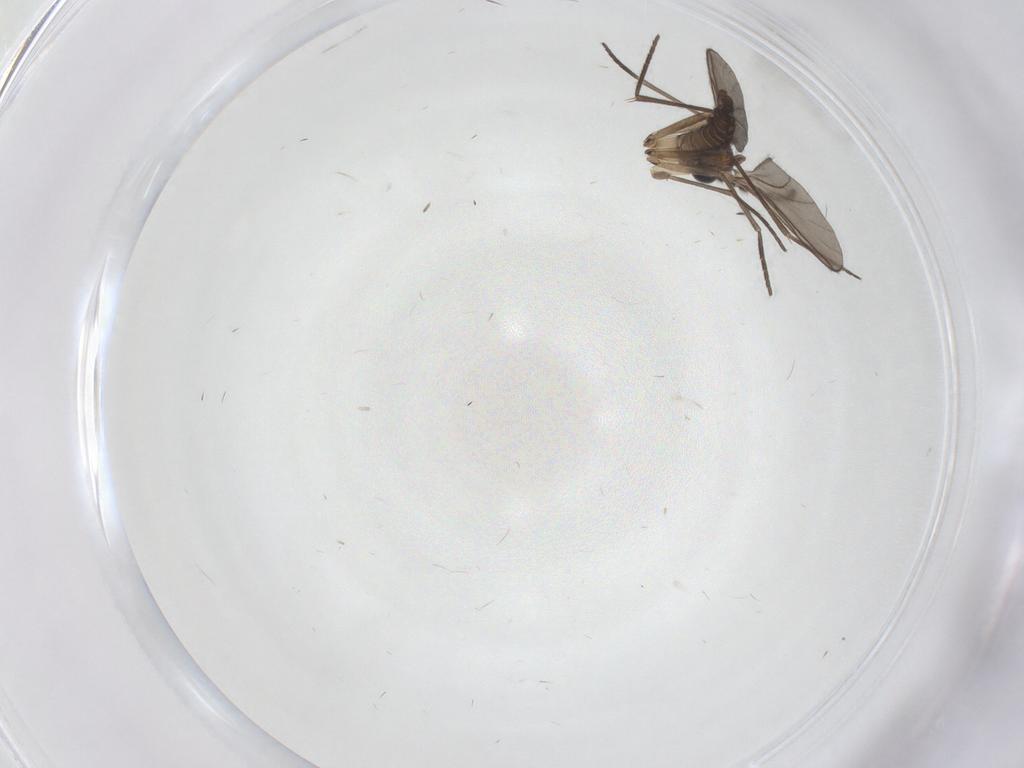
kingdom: Animalia
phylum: Arthropoda
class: Insecta
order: Diptera
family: Sciaridae
